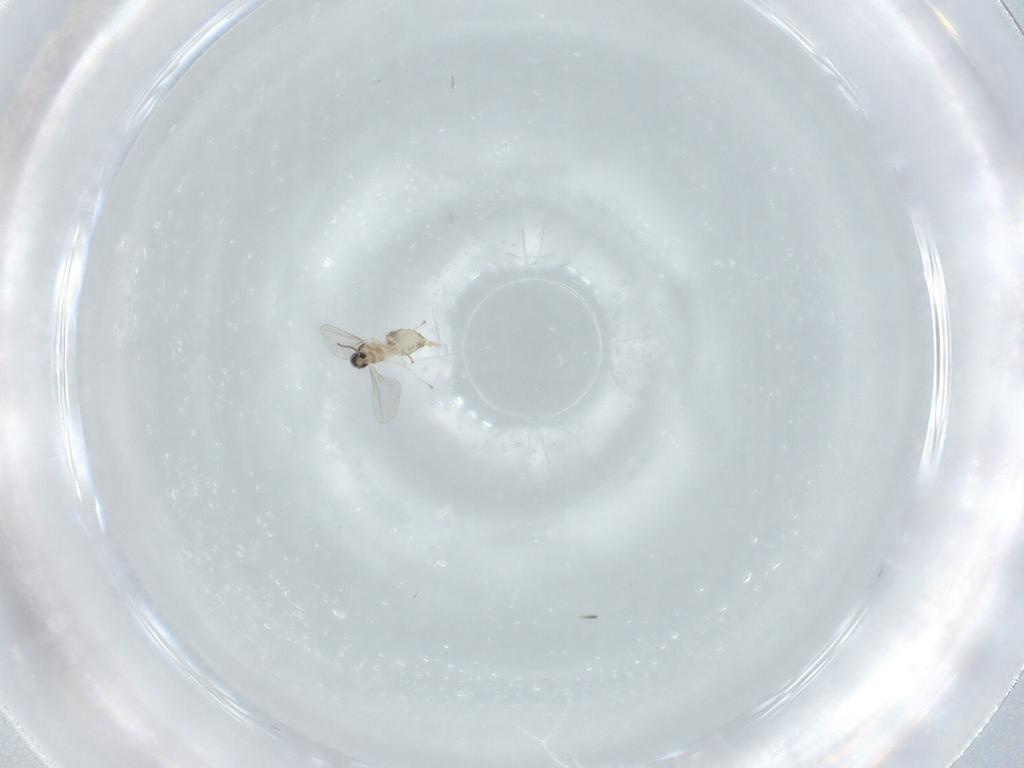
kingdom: Animalia
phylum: Arthropoda
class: Insecta
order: Diptera
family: Cecidomyiidae
